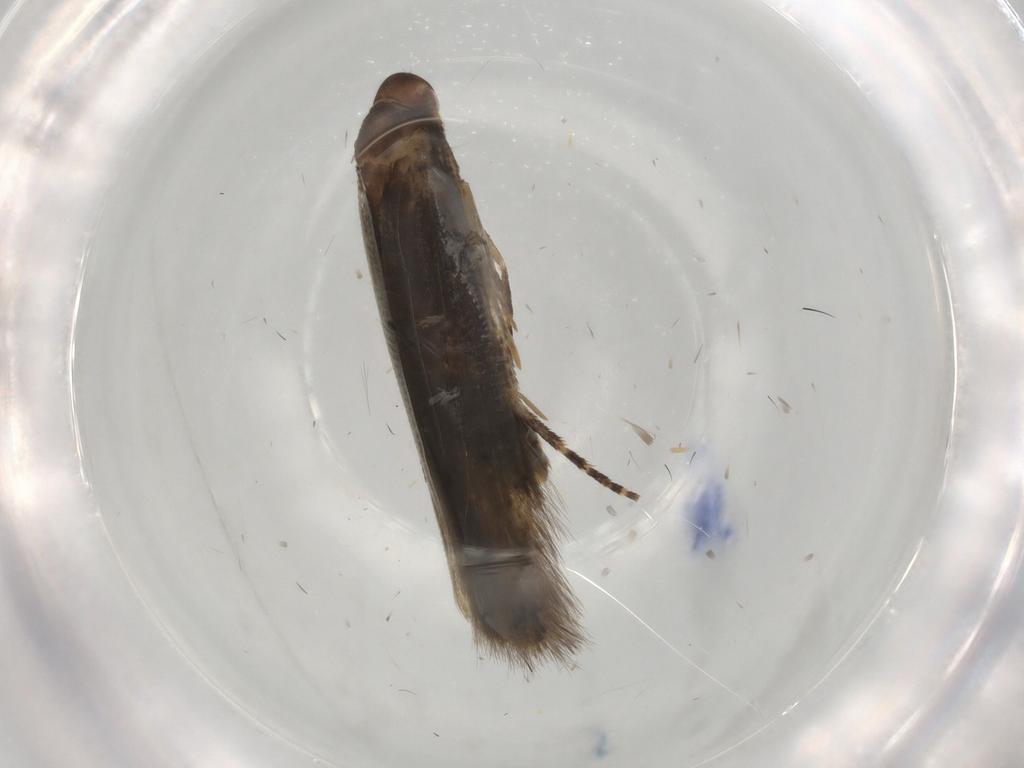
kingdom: Animalia
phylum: Arthropoda
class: Insecta
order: Lepidoptera
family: Momphidae
